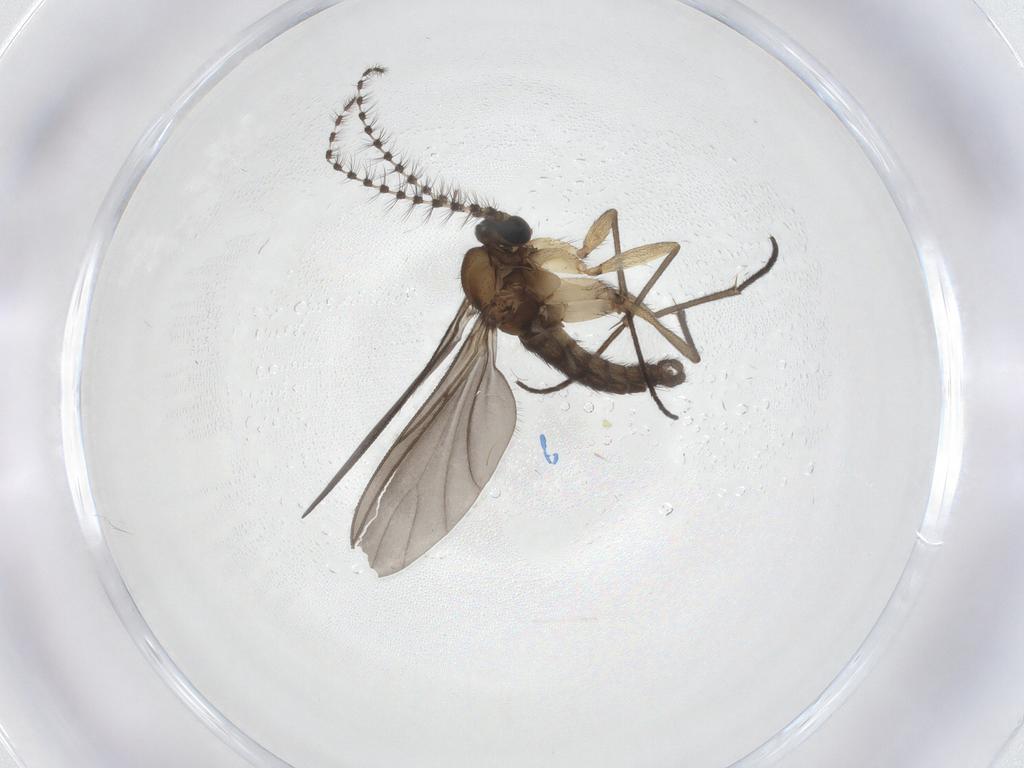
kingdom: Animalia
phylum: Arthropoda
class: Insecta
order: Diptera
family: Sciaridae
